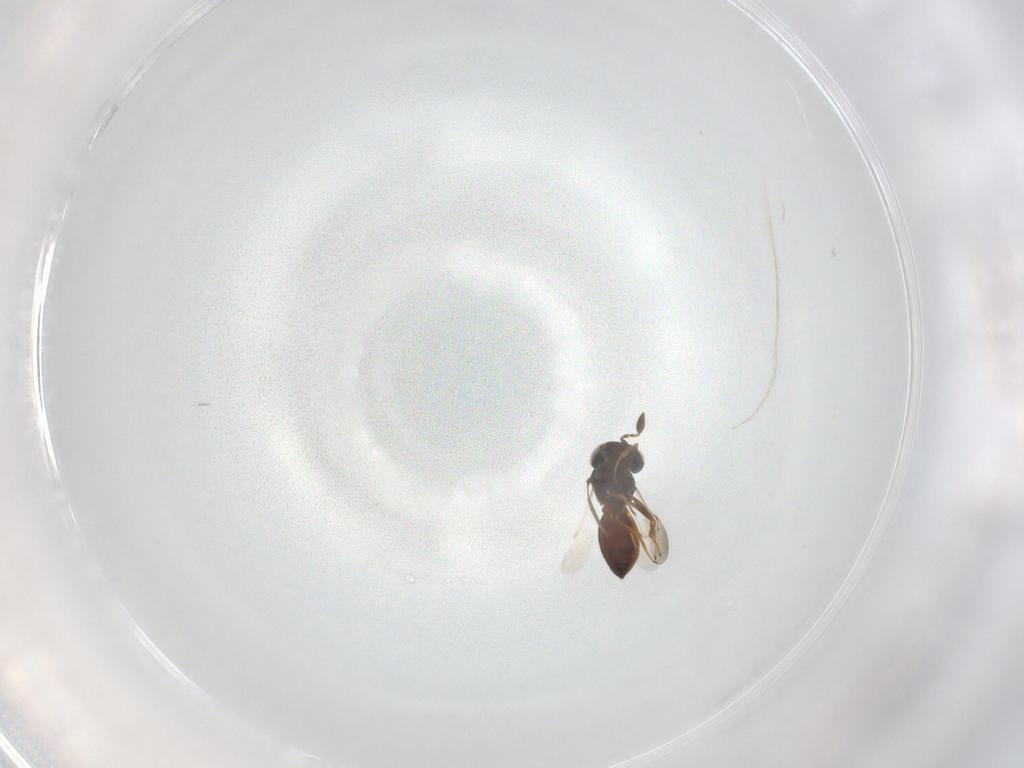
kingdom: Animalia
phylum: Arthropoda
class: Insecta
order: Hymenoptera
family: Scelionidae
